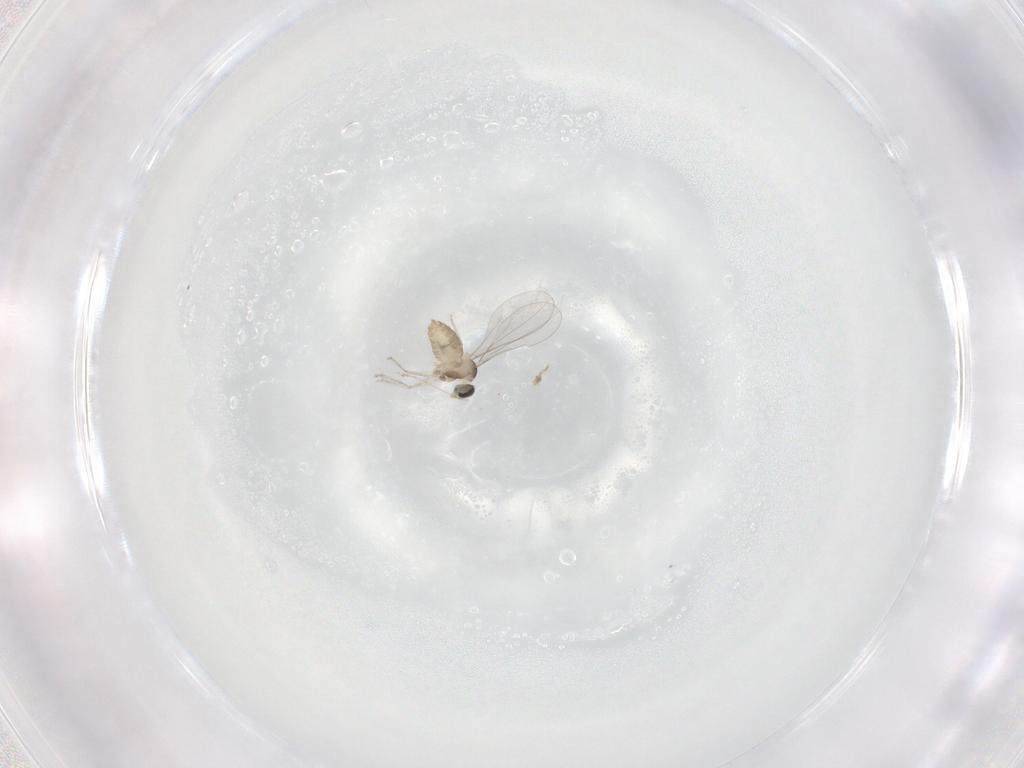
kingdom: Animalia
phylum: Arthropoda
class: Insecta
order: Diptera
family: Cecidomyiidae
